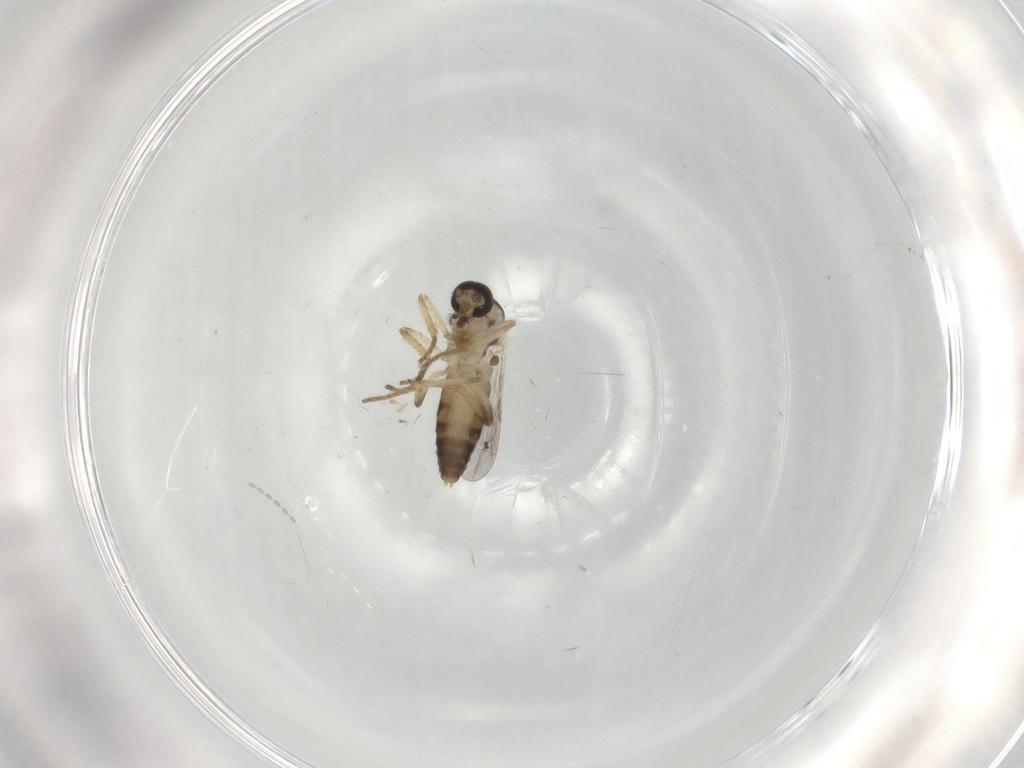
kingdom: Animalia
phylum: Arthropoda
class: Insecta
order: Diptera
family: Ceratopogonidae
